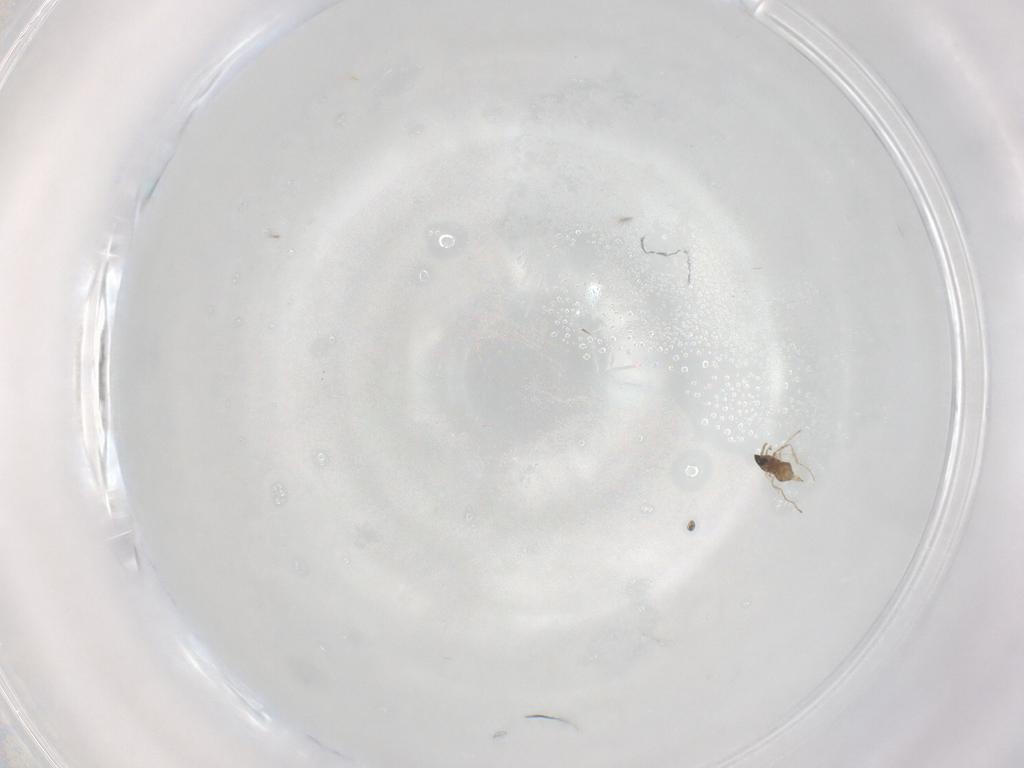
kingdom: Animalia
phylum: Arthropoda
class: Insecta
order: Diptera
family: Cecidomyiidae
